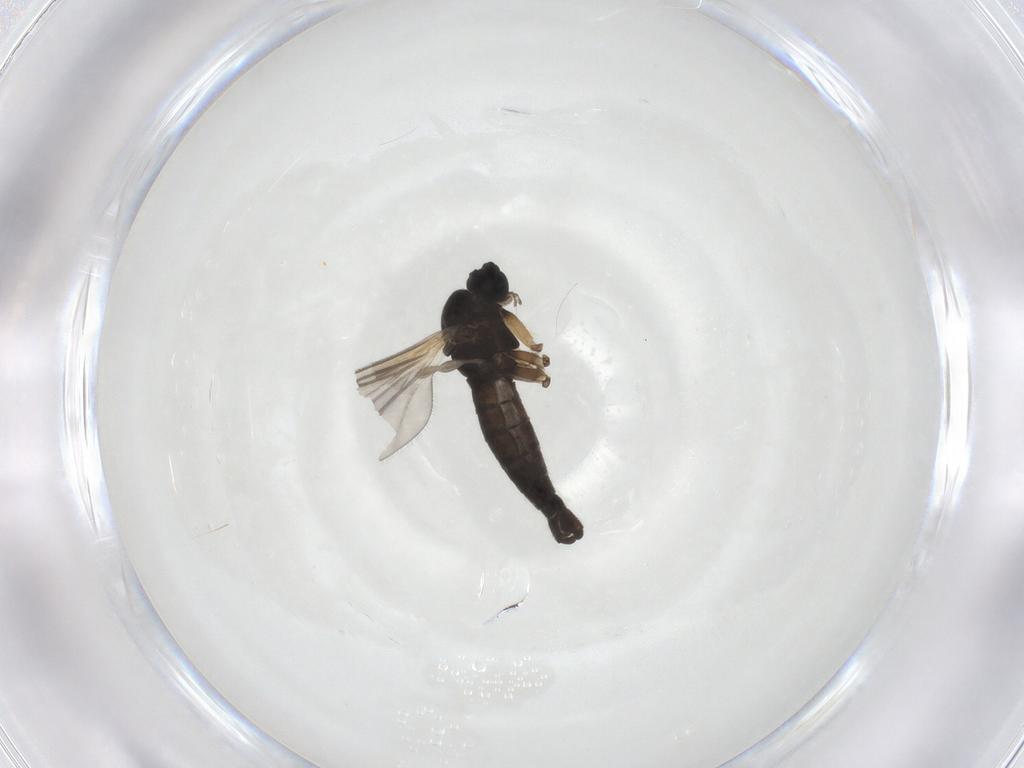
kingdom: Animalia
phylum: Arthropoda
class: Insecta
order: Diptera
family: Sciaridae
